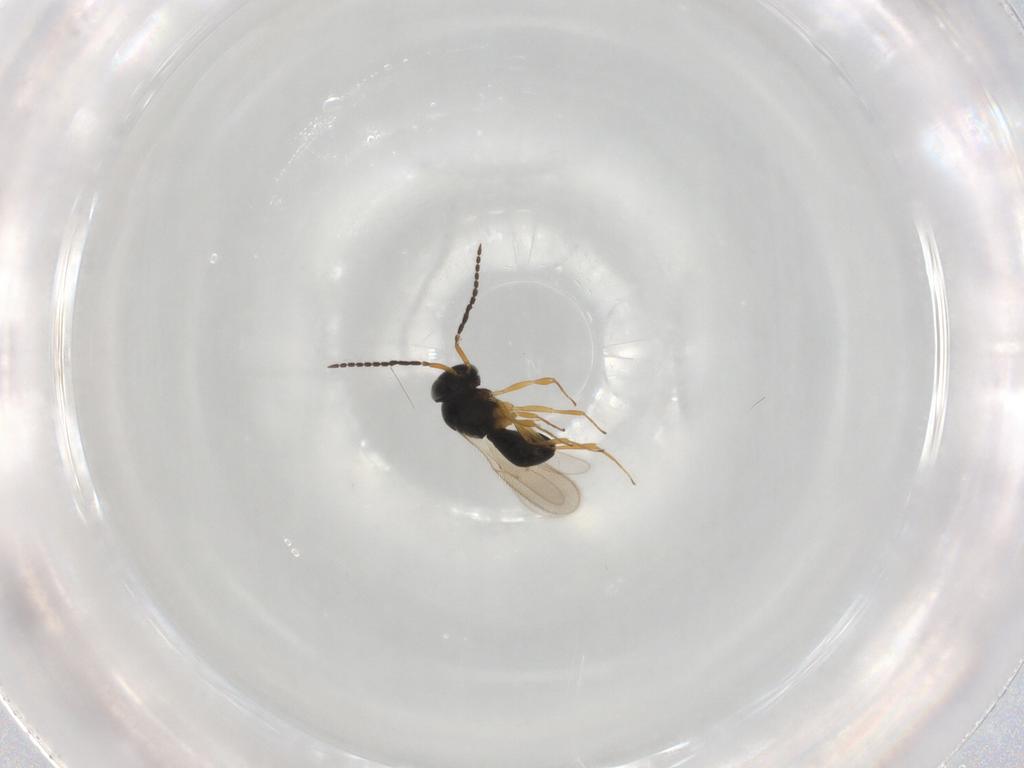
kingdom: Animalia
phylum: Arthropoda
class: Insecta
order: Hymenoptera
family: Scelionidae
